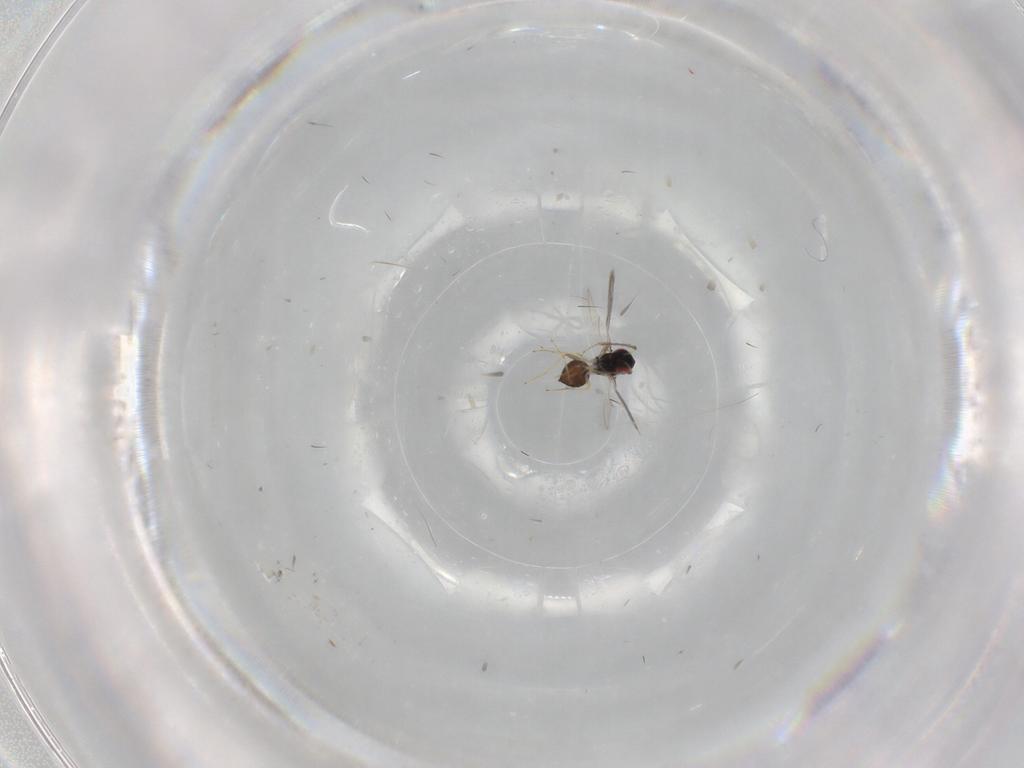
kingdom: Animalia
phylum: Arthropoda
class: Insecta
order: Hymenoptera
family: Eulophidae
